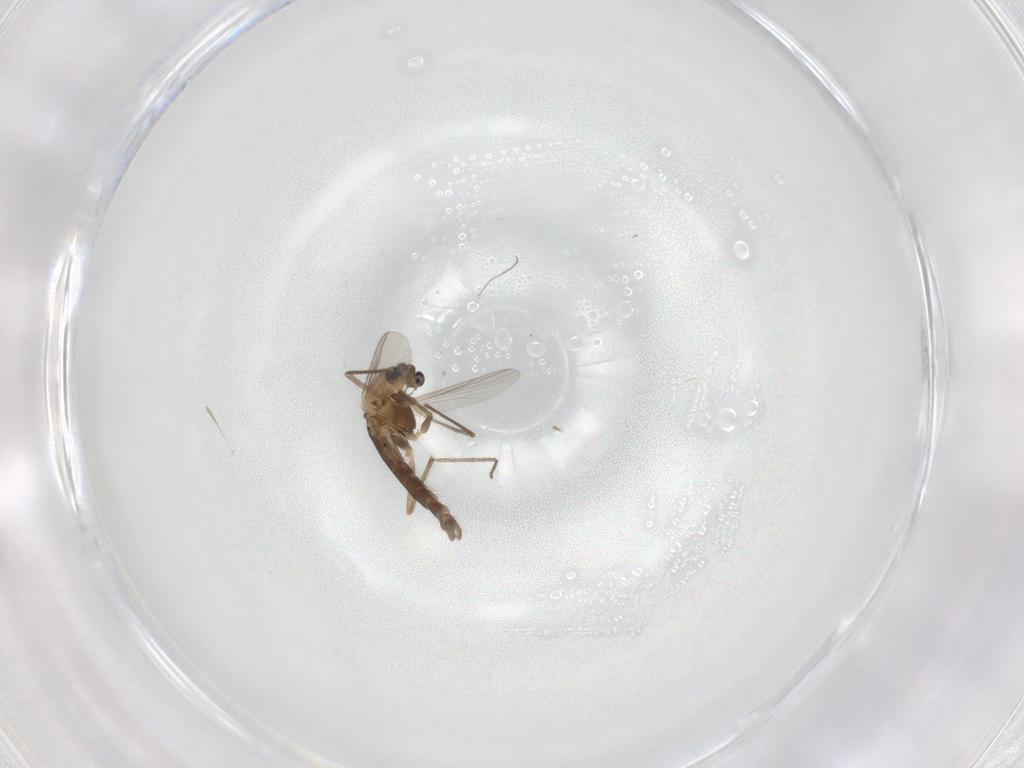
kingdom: Animalia
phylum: Arthropoda
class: Insecta
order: Diptera
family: Chironomidae
